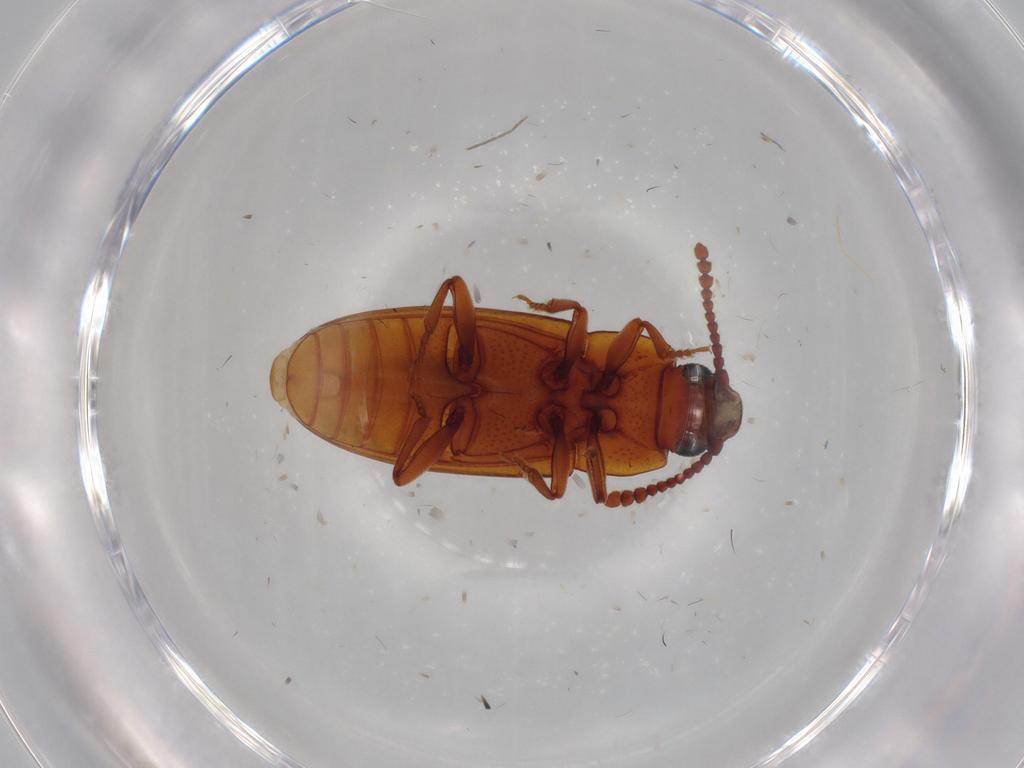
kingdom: Animalia
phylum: Arthropoda
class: Insecta
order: Coleoptera
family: Erotylidae
